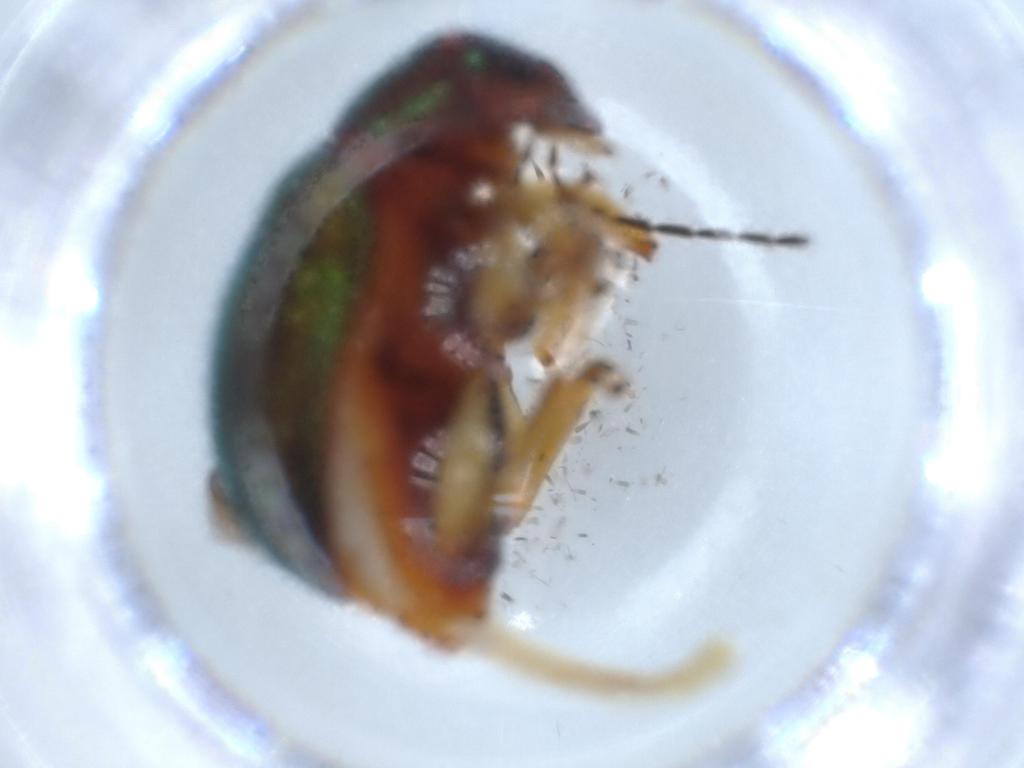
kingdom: Animalia
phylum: Arthropoda
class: Insecta
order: Coleoptera
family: Chrysomelidae
